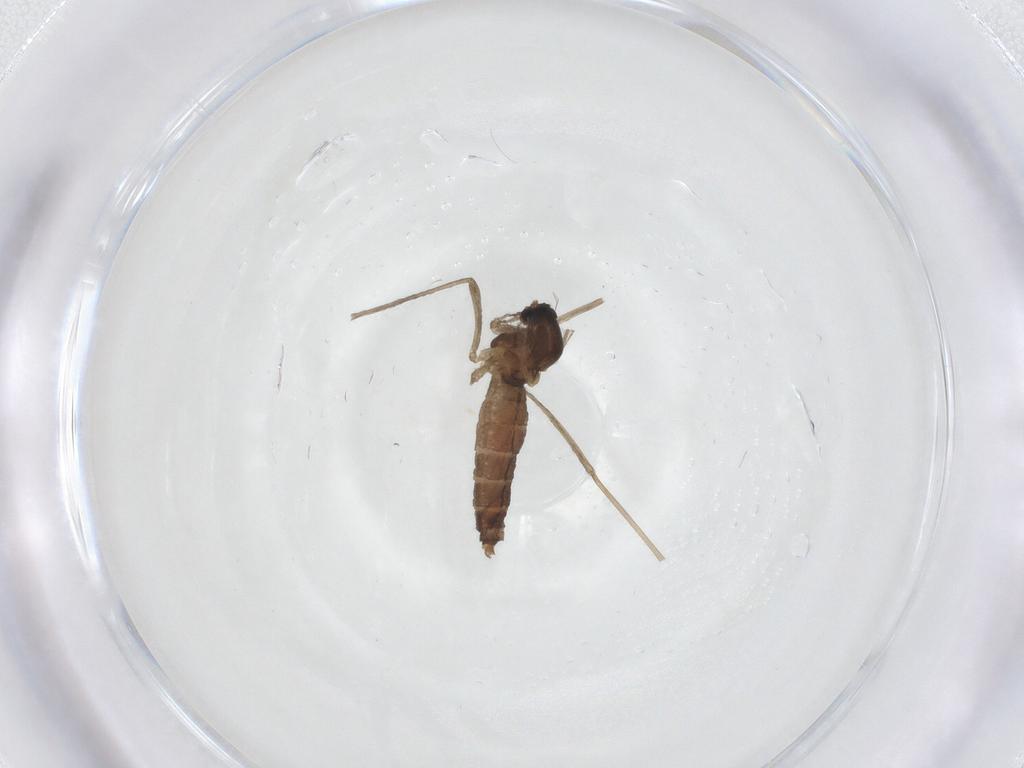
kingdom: Animalia
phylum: Arthropoda
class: Insecta
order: Diptera
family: Cecidomyiidae
